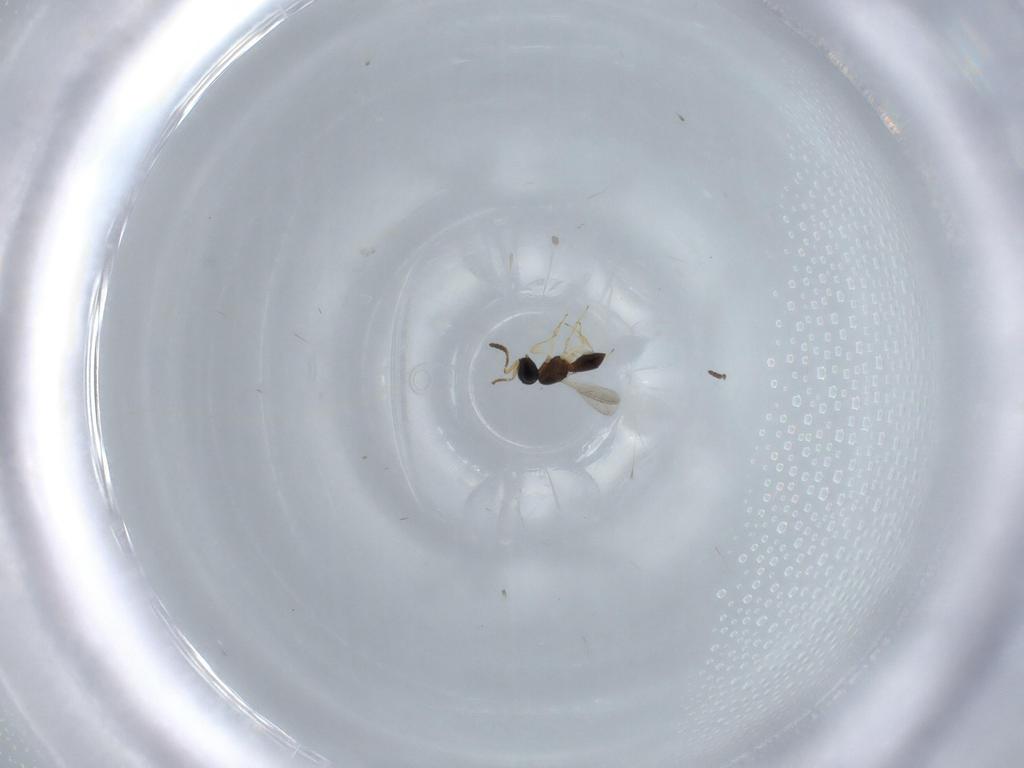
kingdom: Animalia
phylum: Arthropoda
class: Insecta
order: Hymenoptera
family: Scelionidae
